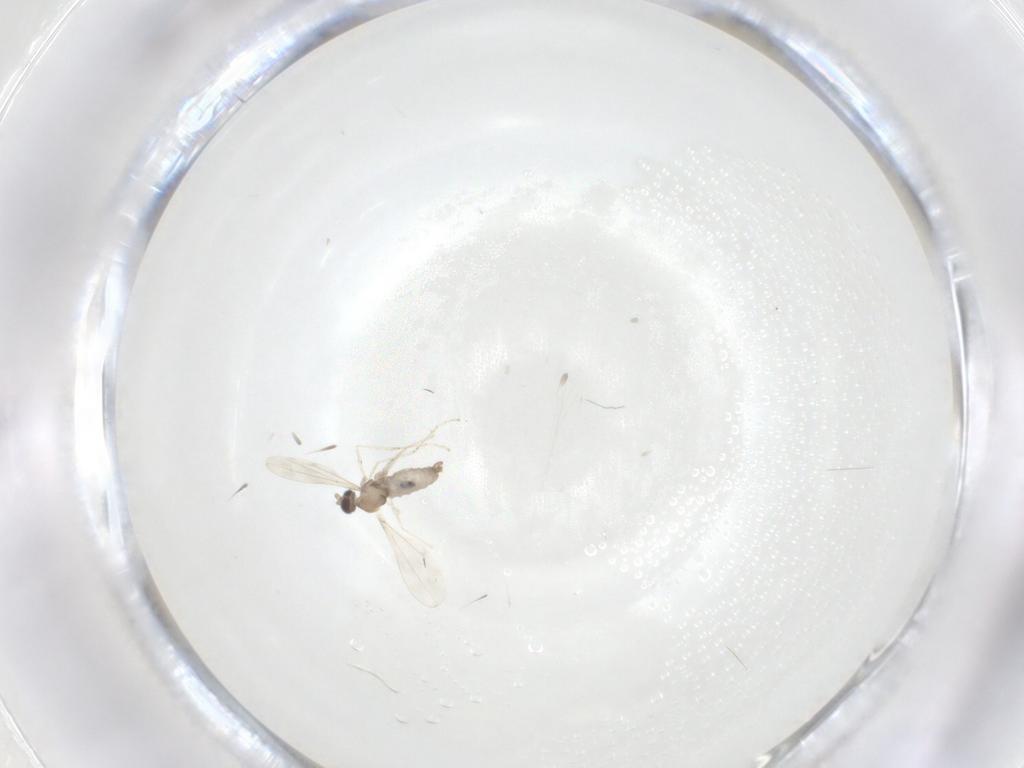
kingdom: Animalia
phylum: Arthropoda
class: Insecta
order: Diptera
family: Cecidomyiidae
